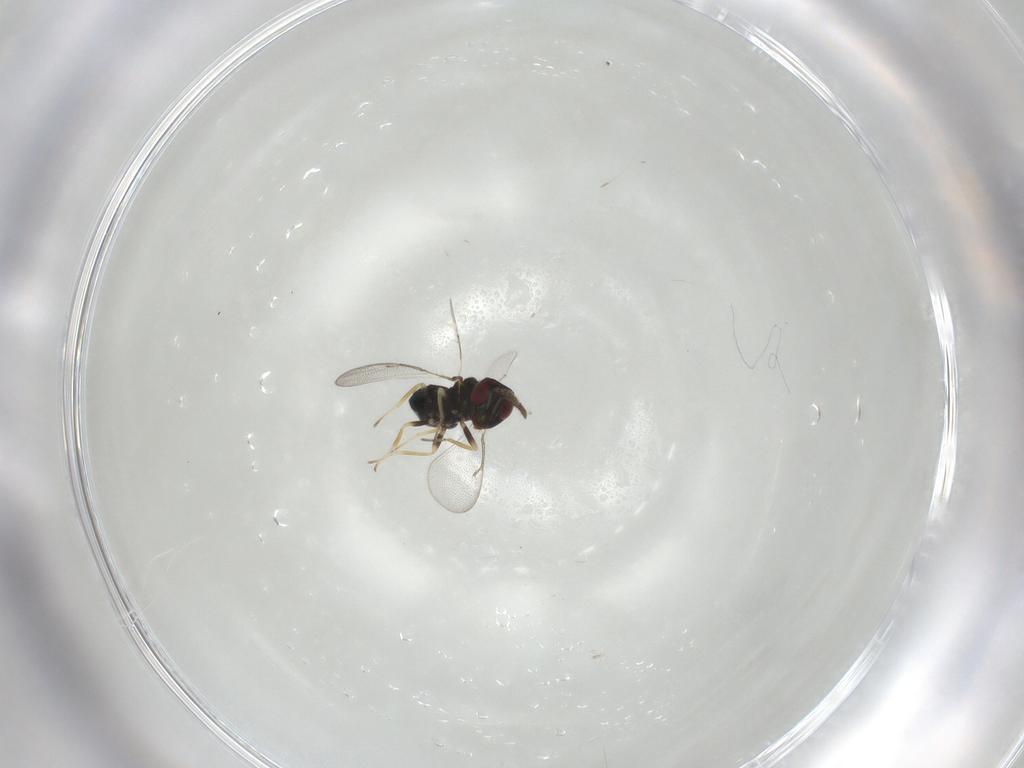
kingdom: Animalia
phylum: Arthropoda
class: Insecta
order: Hymenoptera
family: Eulophidae
